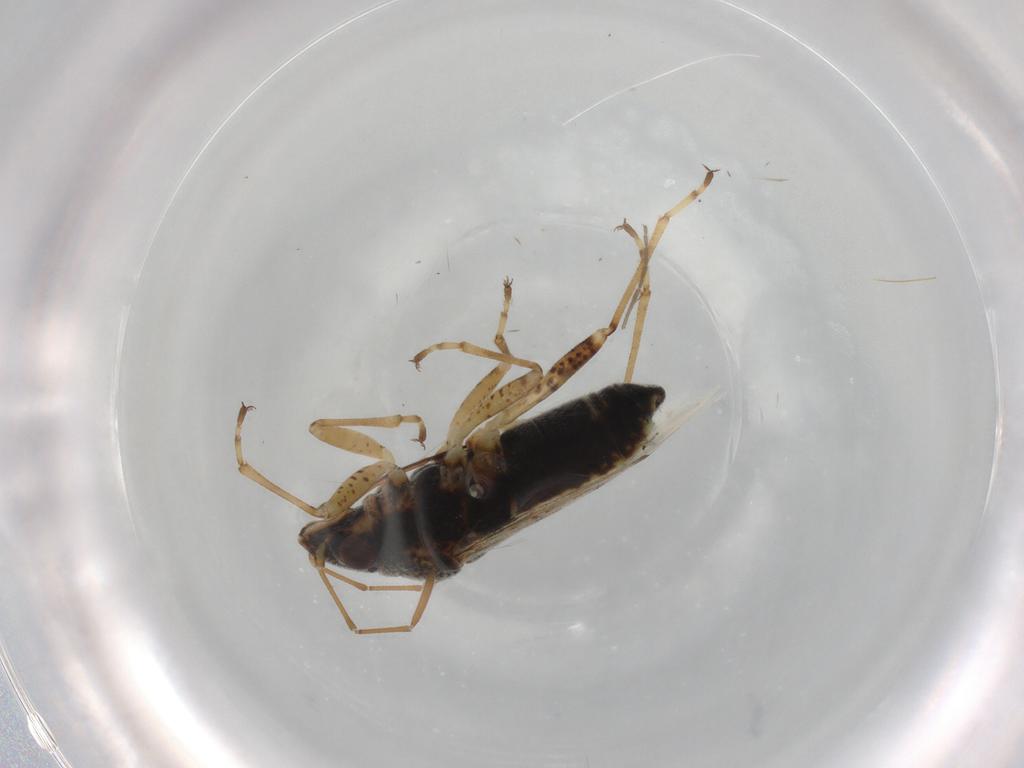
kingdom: Animalia
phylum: Arthropoda
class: Insecta
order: Hemiptera
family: Lygaeidae
